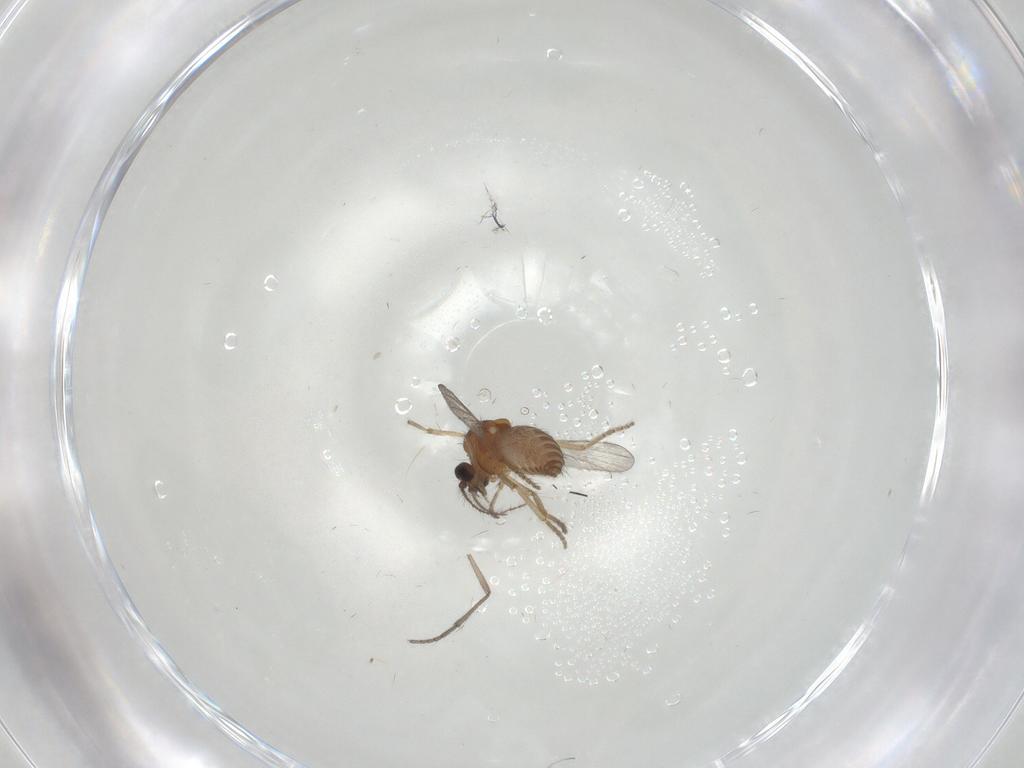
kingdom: Animalia
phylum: Arthropoda
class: Insecta
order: Diptera
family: Ceratopogonidae
